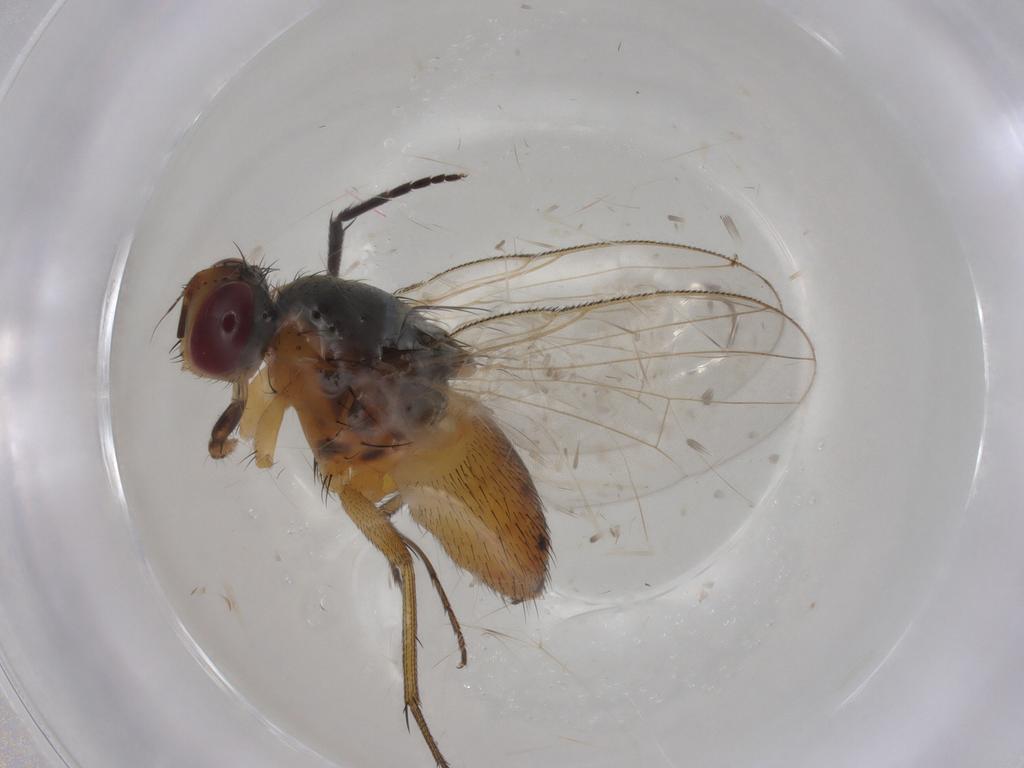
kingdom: Animalia
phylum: Arthropoda
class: Insecta
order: Diptera
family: Muscidae
